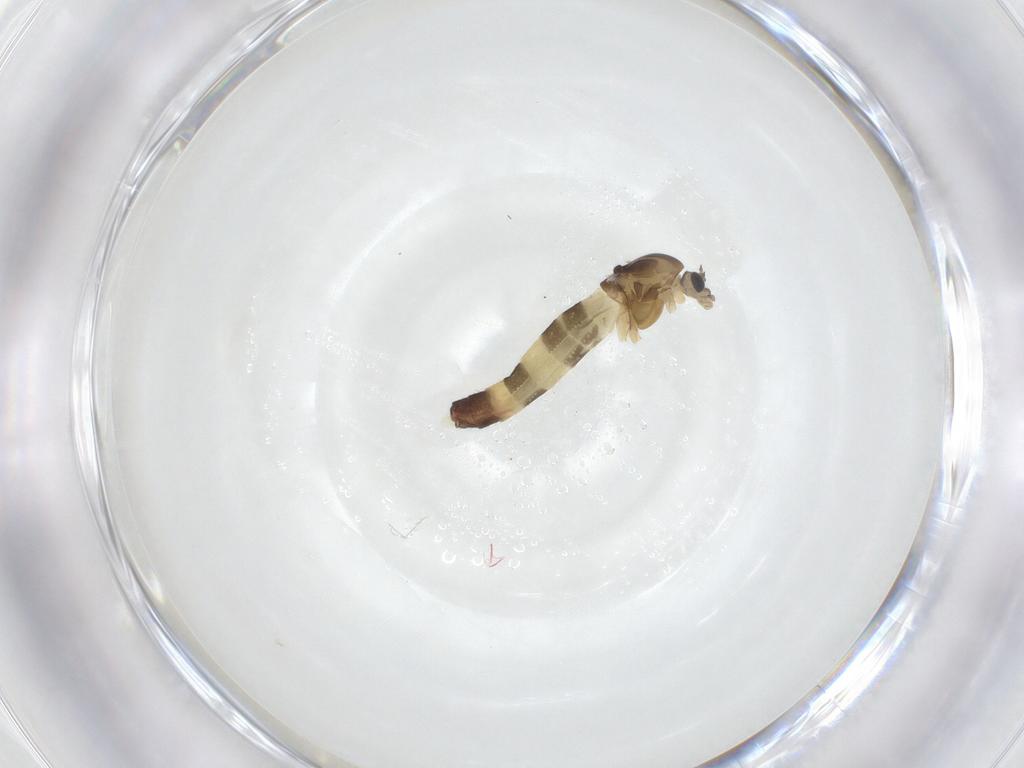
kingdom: Animalia
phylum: Arthropoda
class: Insecta
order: Diptera
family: Chironomidae
